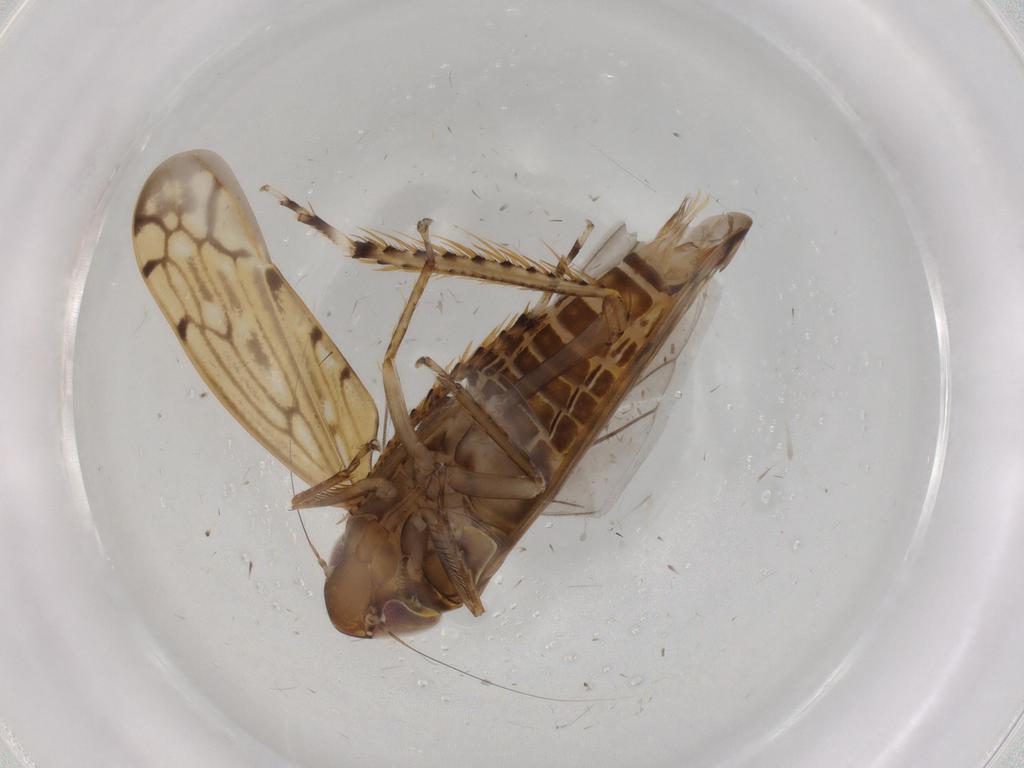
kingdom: Animalia
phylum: Arthropoda
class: Insecta
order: Hemiptera
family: Cicadellidae
